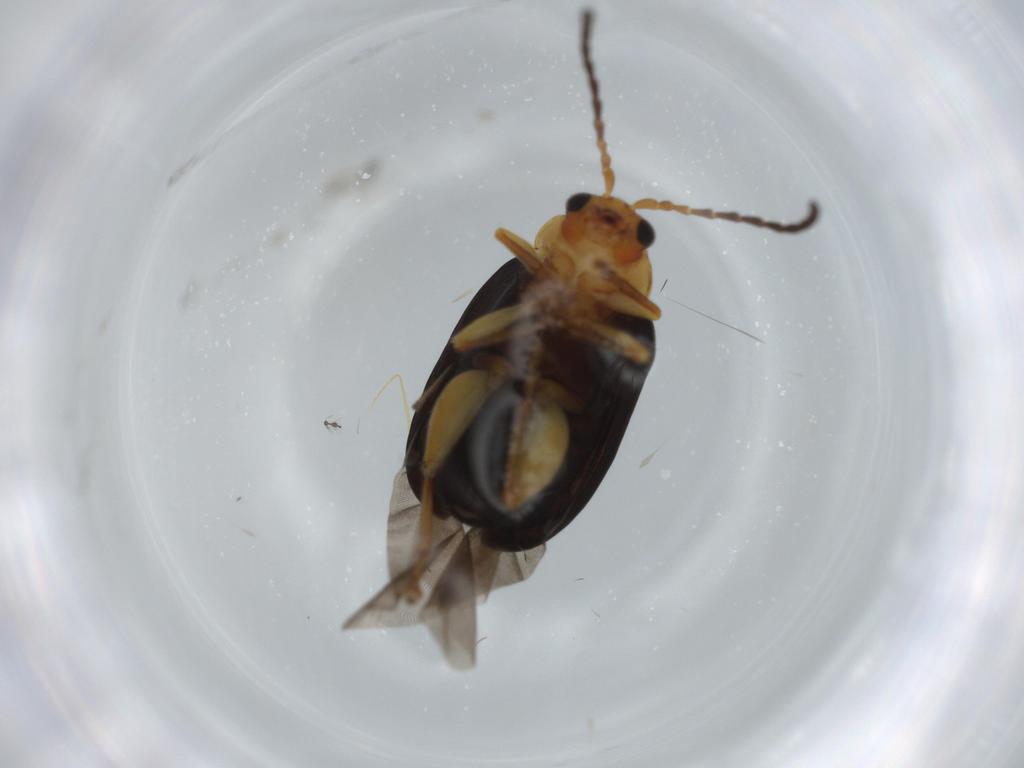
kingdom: Animalia
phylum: Arthropoda
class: Insecta
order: Coleoptera
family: Chrysomelidae
